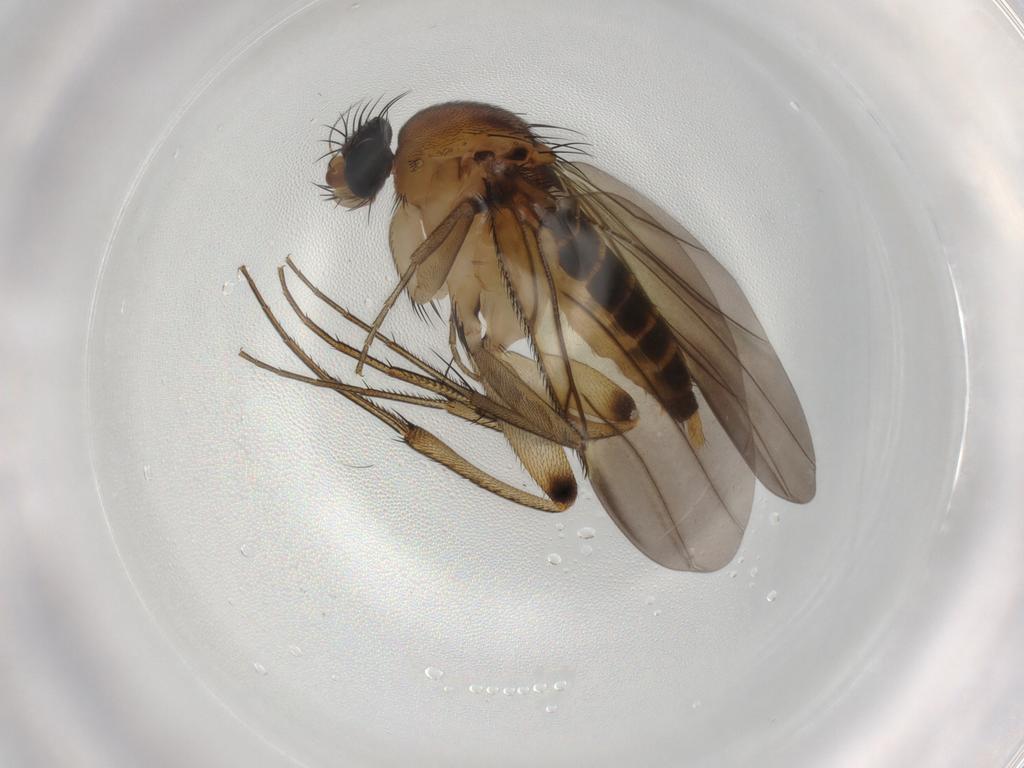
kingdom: Animalia
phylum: Arthropoda
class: Insecta
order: Diptera
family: Phoridae
